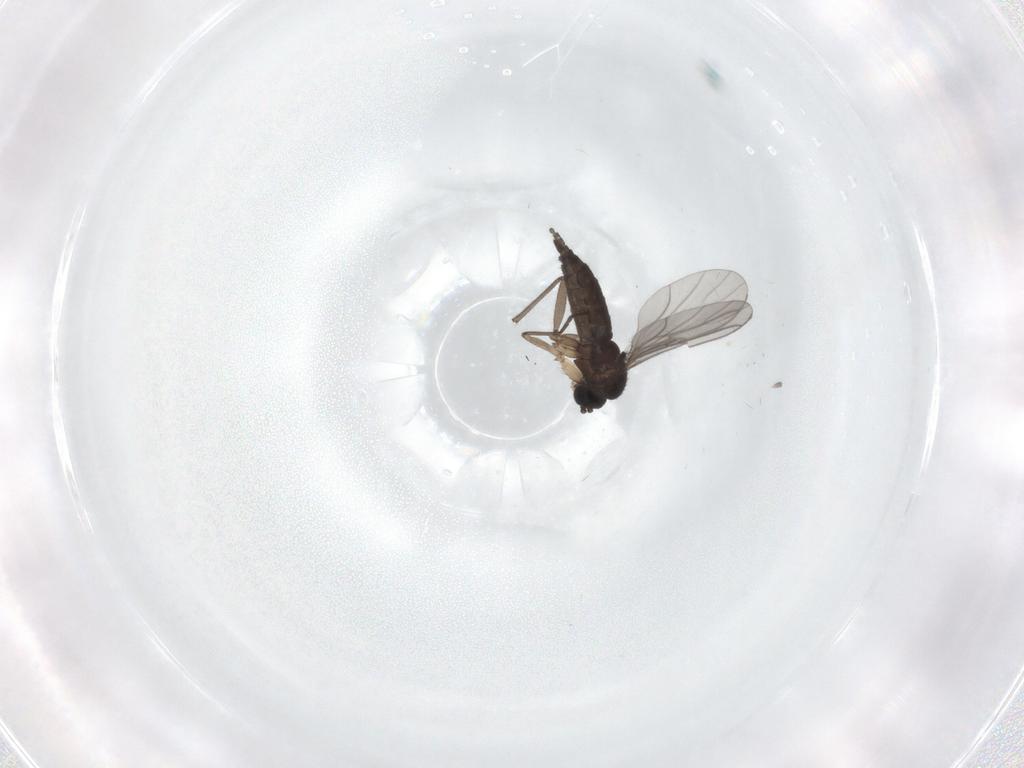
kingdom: Animalia
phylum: Arthropoda
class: Insecta
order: Diptera
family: Sciaridae
